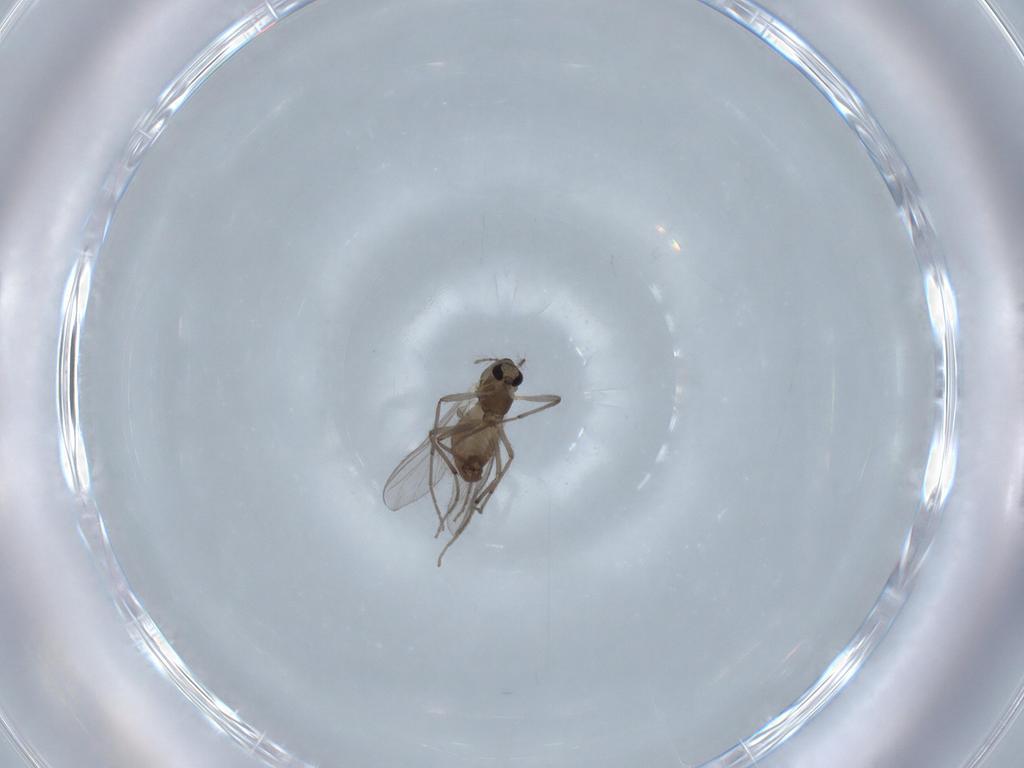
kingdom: Animalia
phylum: Arthropoda
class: Insecta
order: Diptera
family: Chironomidae
